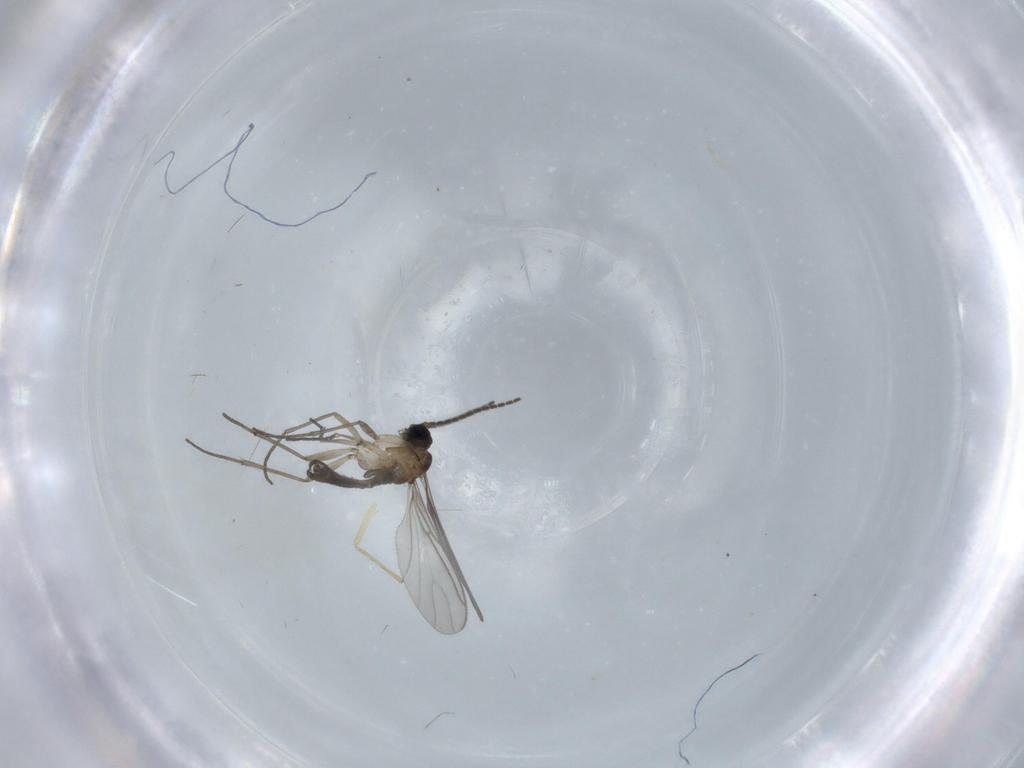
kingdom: Animalia
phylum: Arthropoda
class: Insecta
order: Diptera
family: Chironomidae
